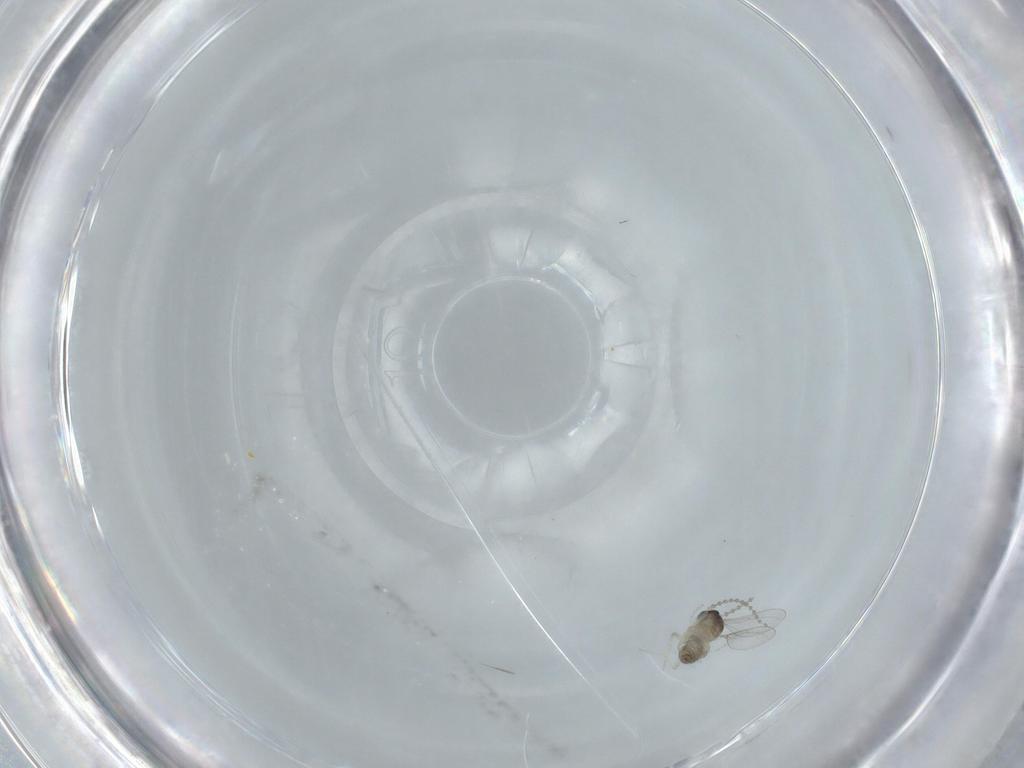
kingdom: Animalia
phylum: Arthropoda
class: Insecta
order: Diptera
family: Cecidomyiidae
